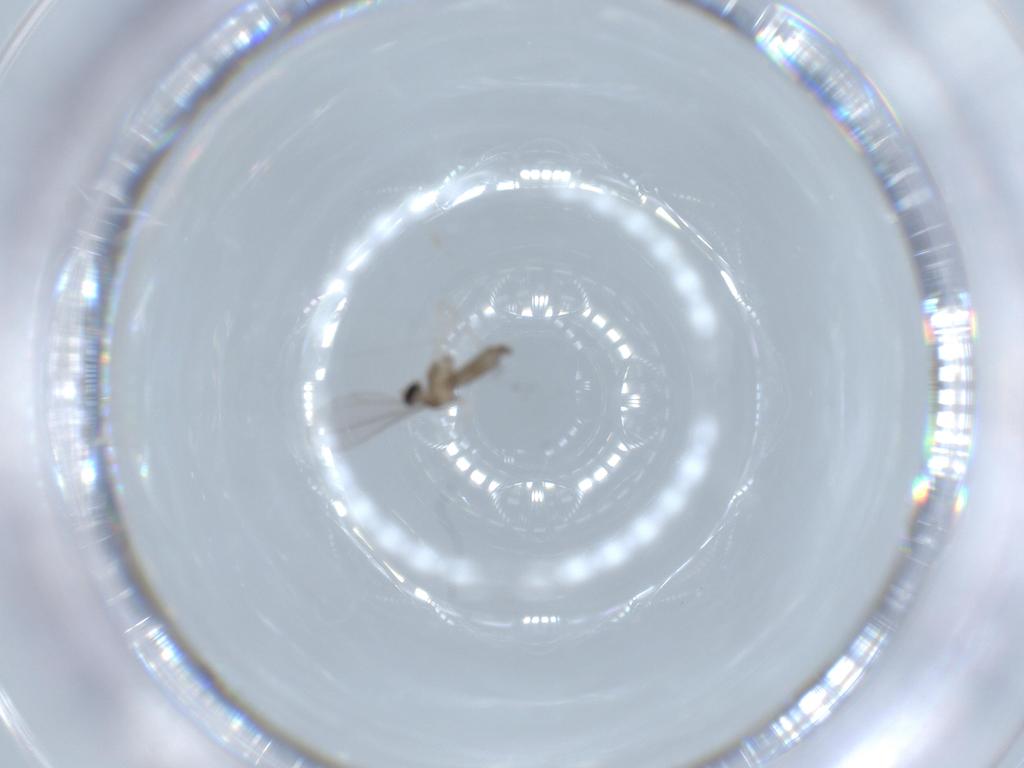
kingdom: Animalia
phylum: Arthropoda
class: Insecta
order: Diptera
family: Cecidomyiidae
